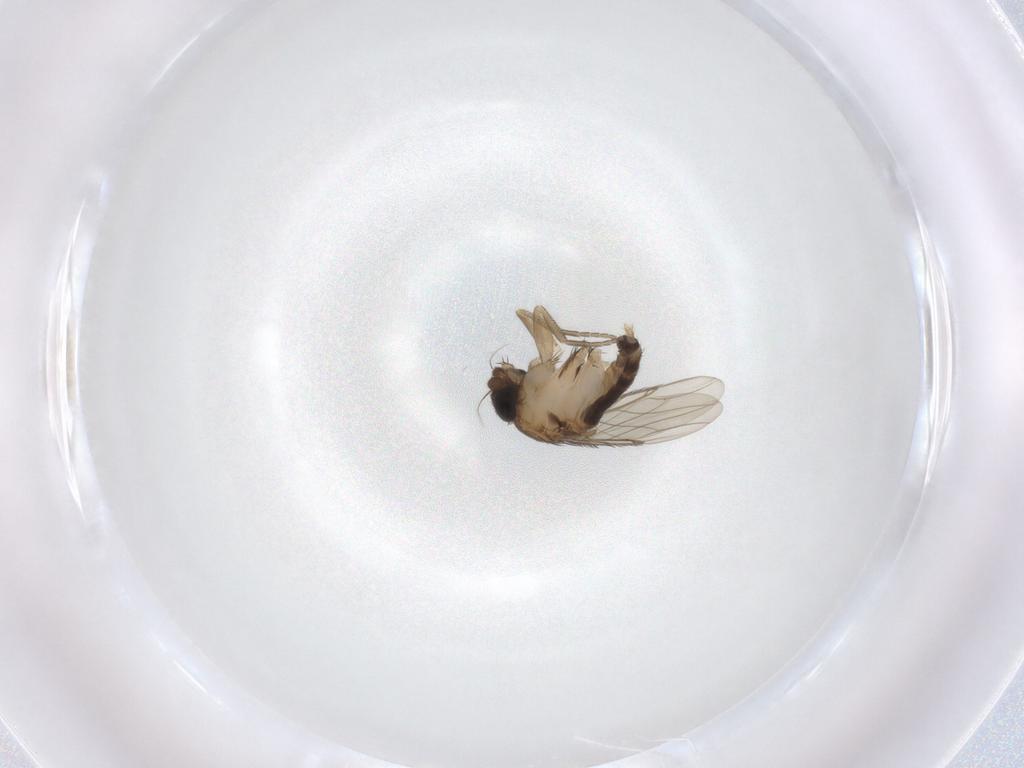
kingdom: Animalia
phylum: Arthropoda
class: Insecta
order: Diptera
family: Phoridae
